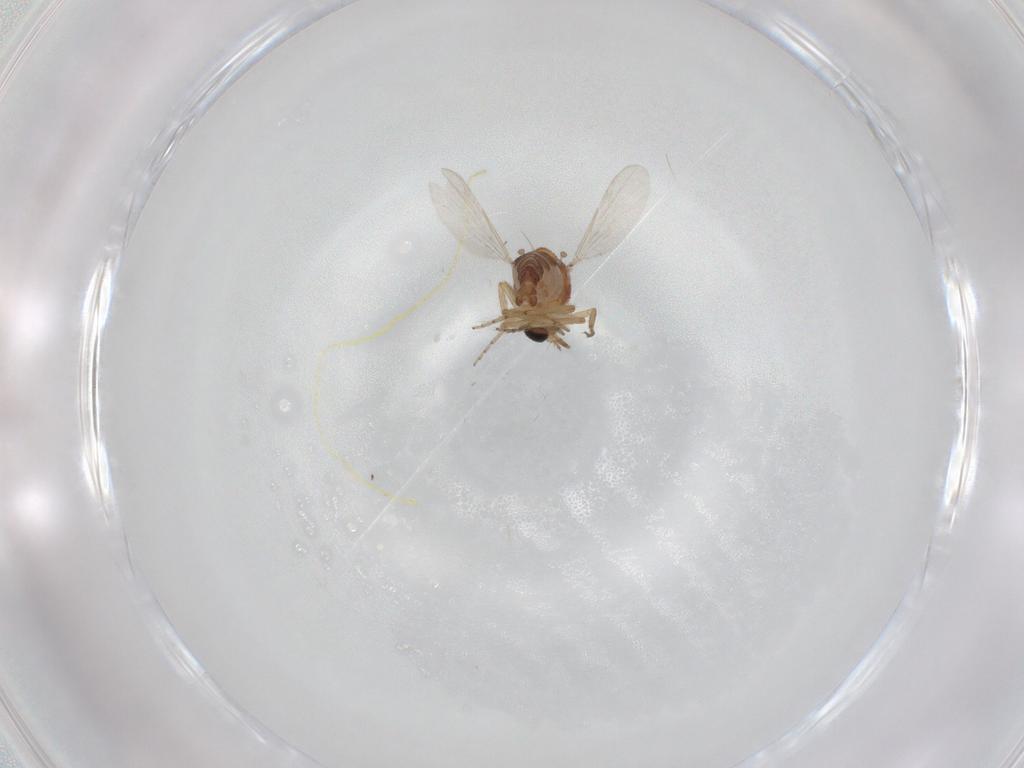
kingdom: Animalia
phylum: Arthropoda
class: Insecta
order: Diptera
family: Ceratopogonidae
